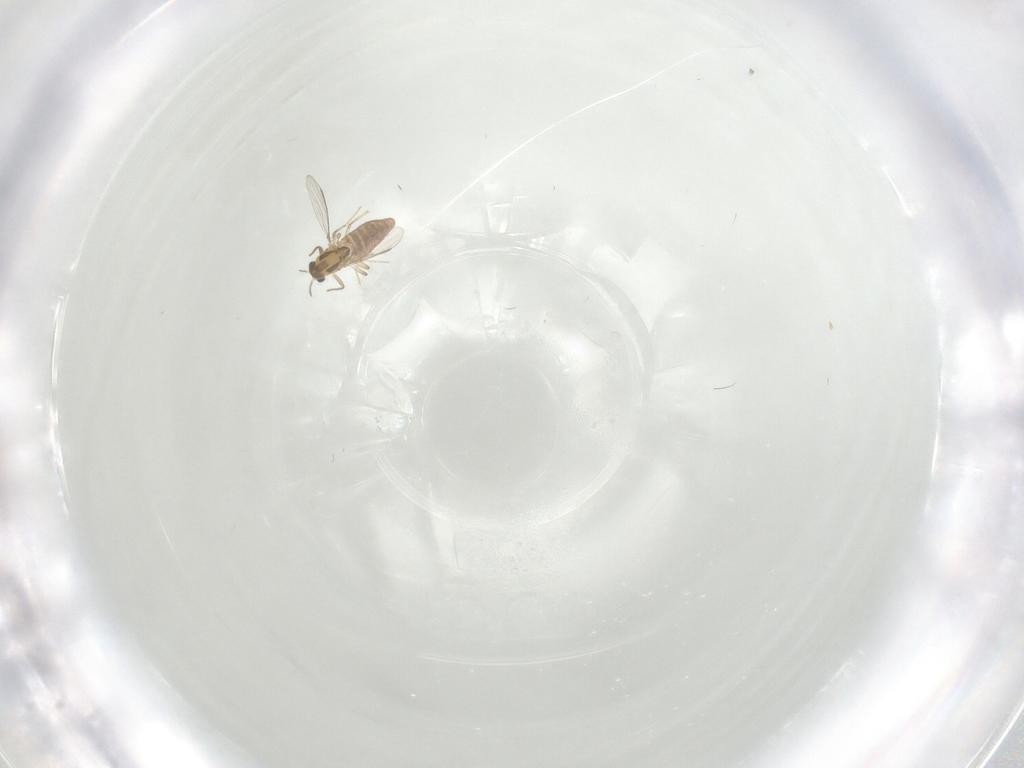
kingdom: Animalia
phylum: Arthropoda
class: Insecta
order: Diptera
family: Chironomidae
